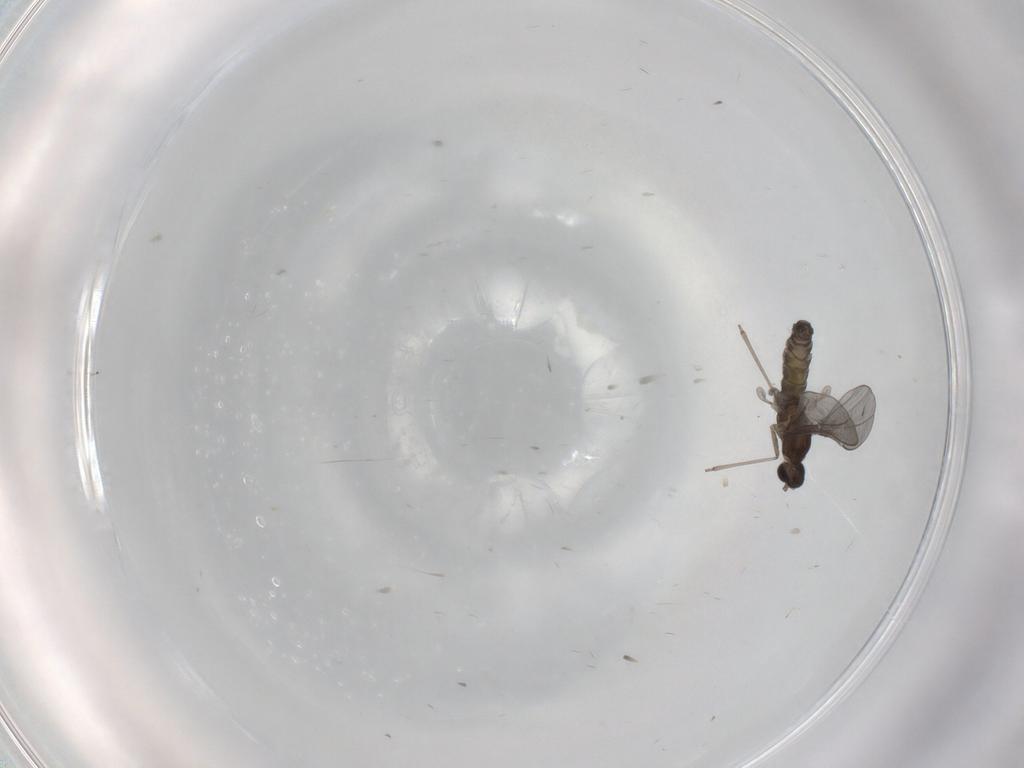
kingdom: Animalia
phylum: Arthropoda
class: Insecta
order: Diptera
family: Cecidomyiidae
